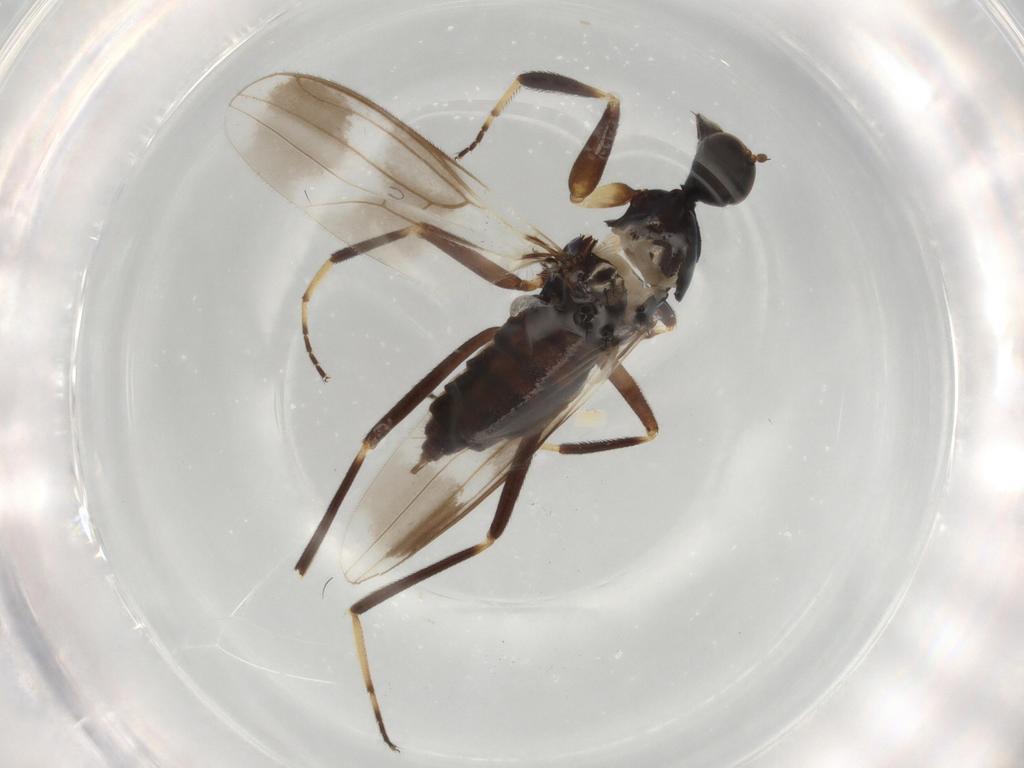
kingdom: Animalia
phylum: Arthropoda
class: Insecta
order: Diptera
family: Hybotidae
